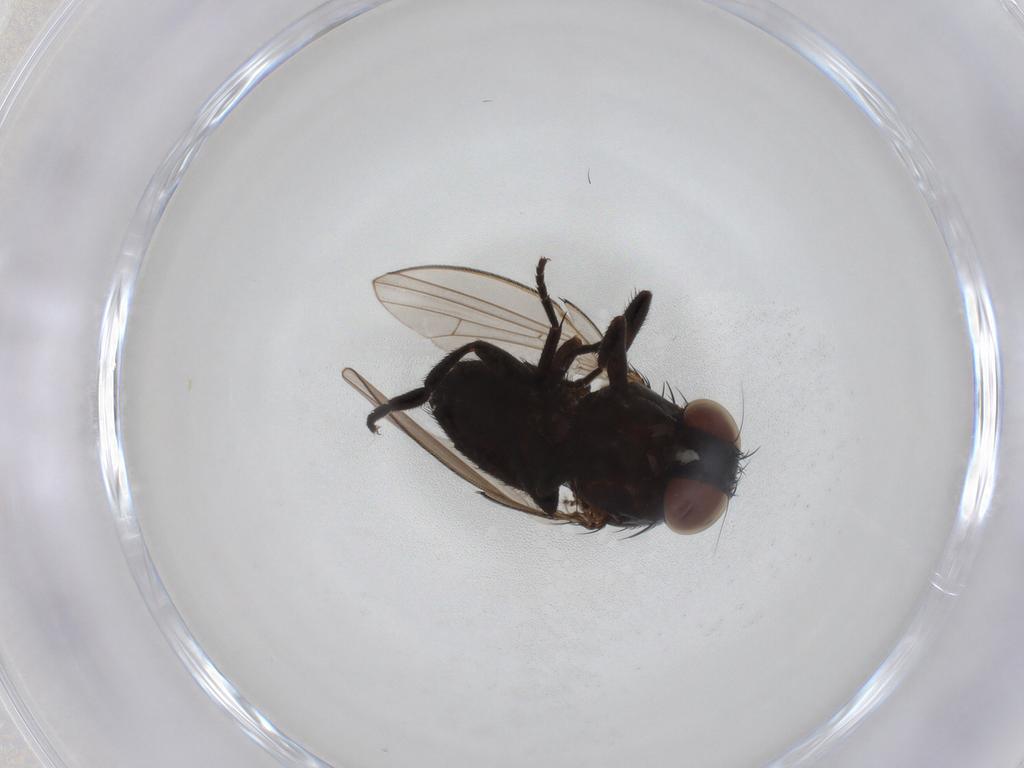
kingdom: Animalia
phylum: Arthropoda
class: Insecta
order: Diptera
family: Milichiidae
